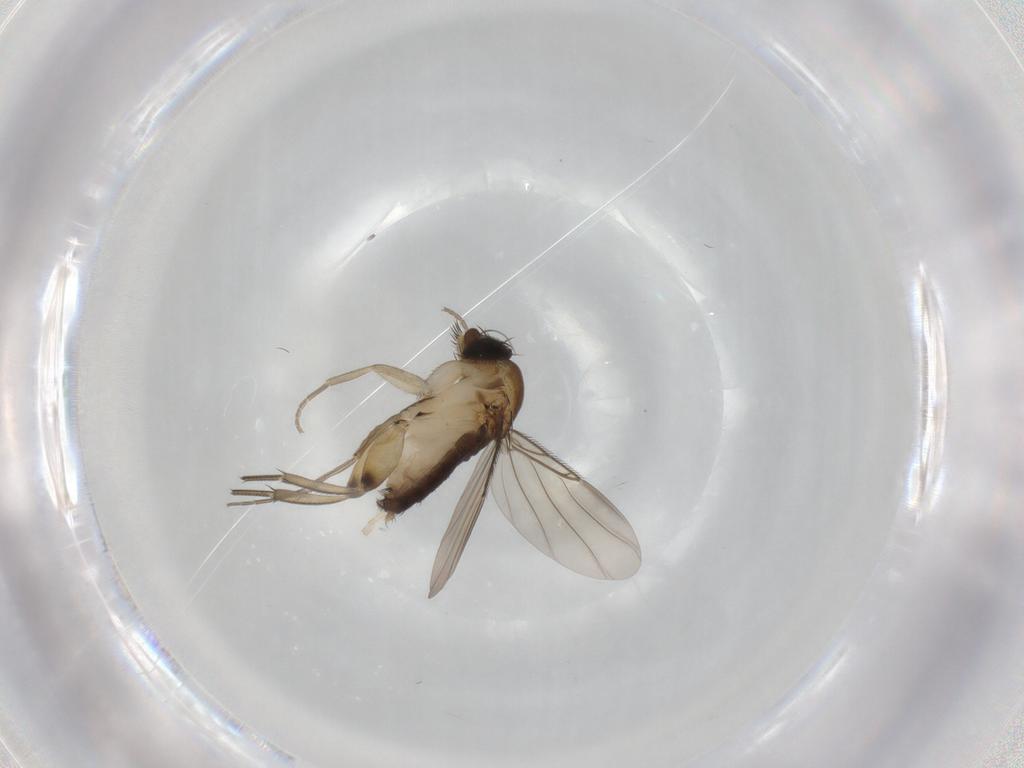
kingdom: Animalia
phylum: Arthropoda
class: Insecta
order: Diptera
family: Phoridae
